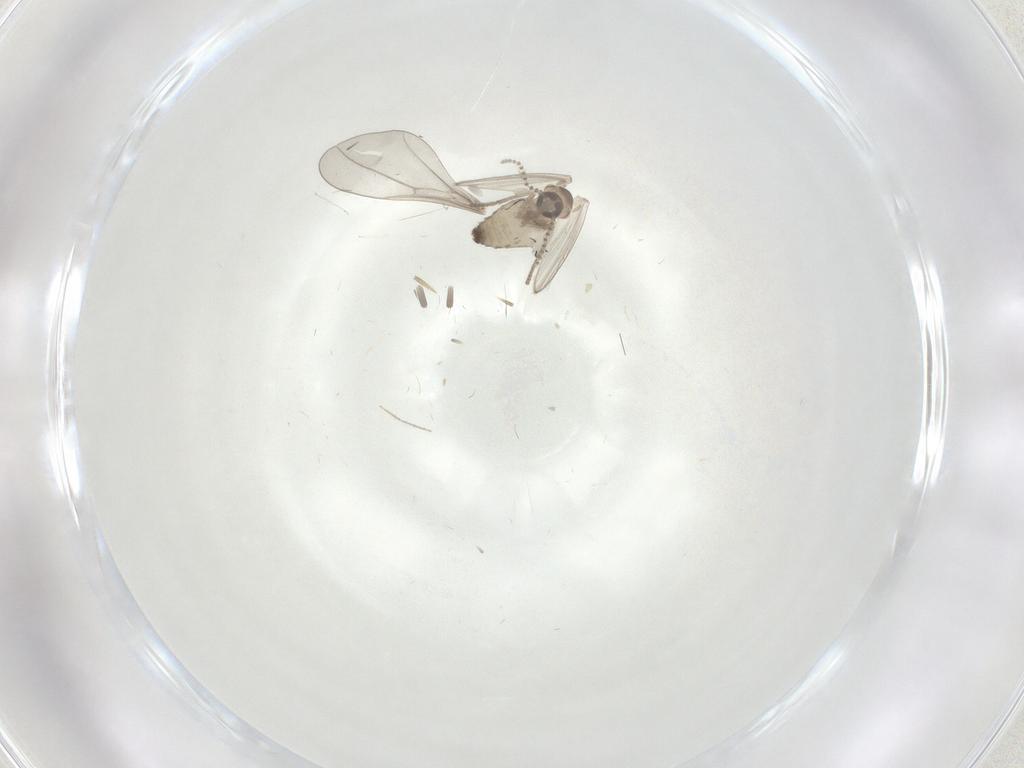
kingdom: Animalia
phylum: Arthropoda
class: Insecta
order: Diptera
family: Psychodidae
